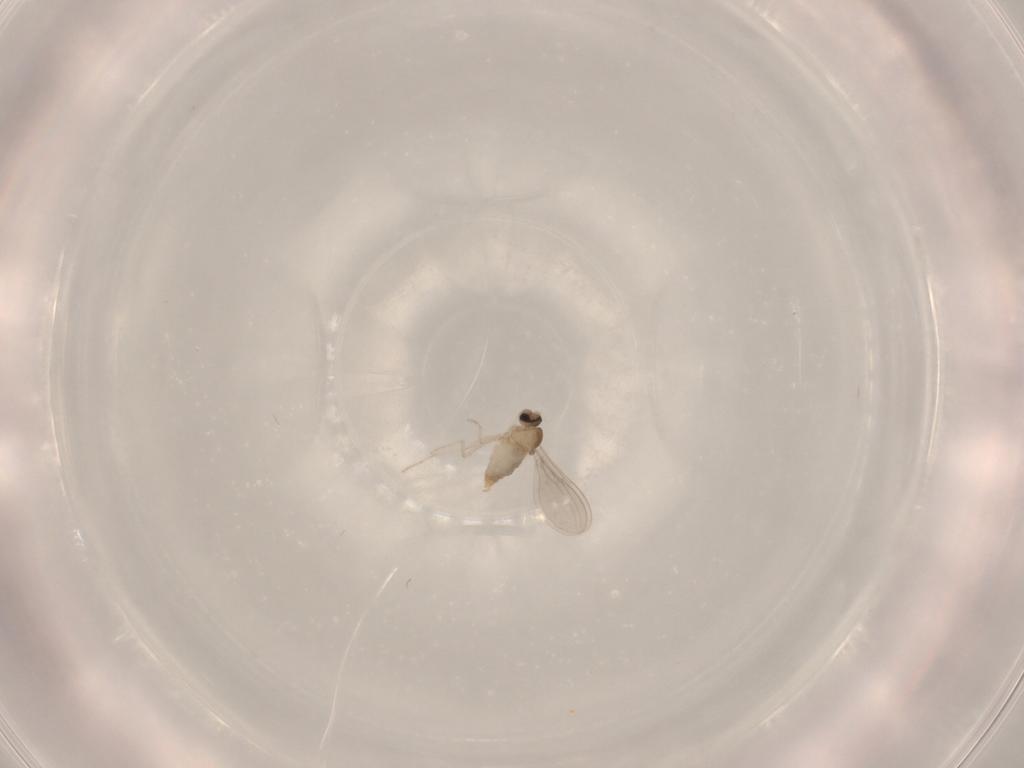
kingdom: Animalia
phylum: Arthropoda
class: Insecta
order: Diptera
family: Cecidomyiidae
